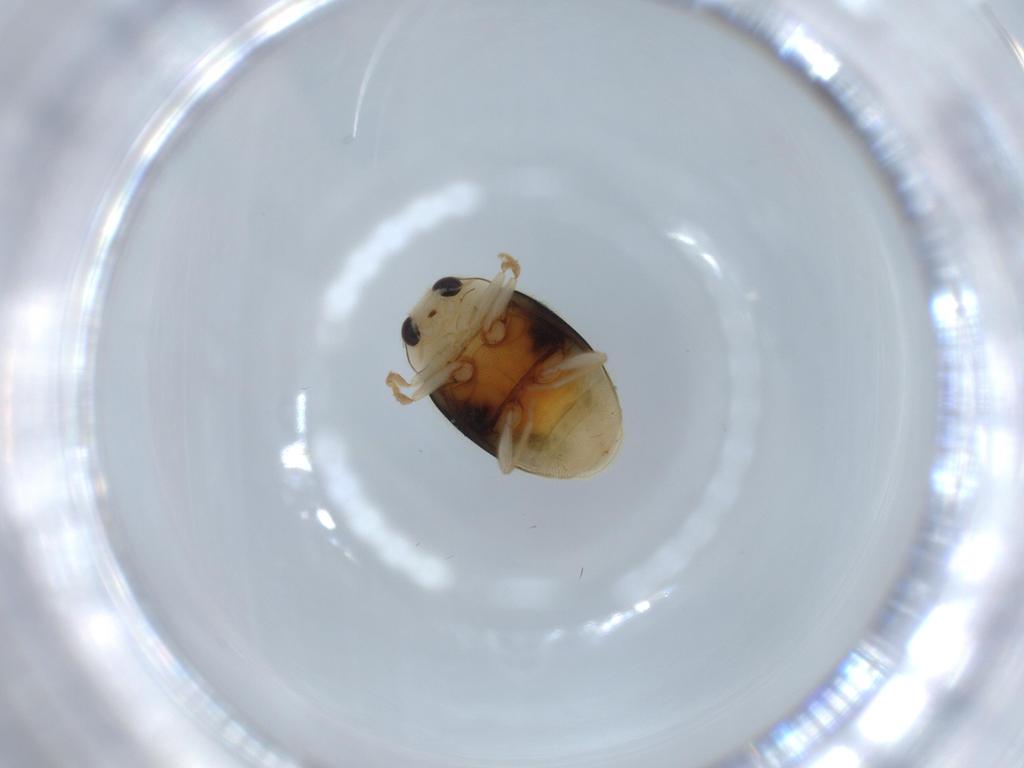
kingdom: Animalia
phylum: Arthropoda
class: Insecta
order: Coleoptera
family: Coccinellidae
